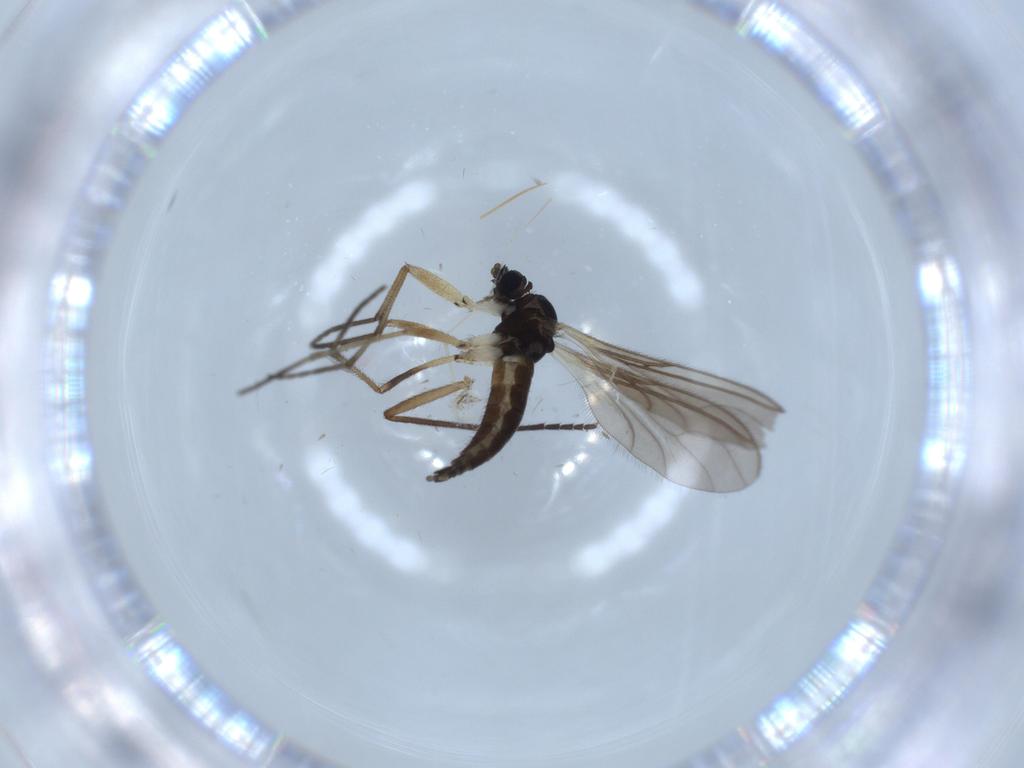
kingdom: Animalia
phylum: Arthropoda
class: Insecta
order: Diptera
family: Sciaridae
